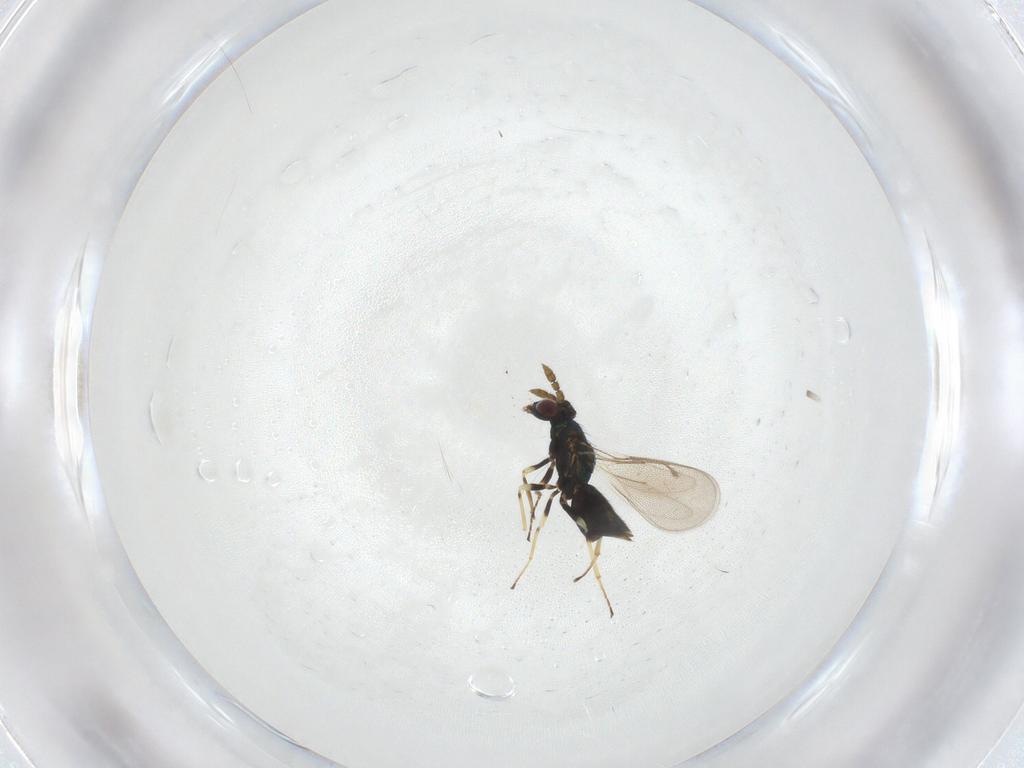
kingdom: Animalia
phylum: Arthropoda
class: Insecta
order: Hymenoptera
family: Eulophidae
